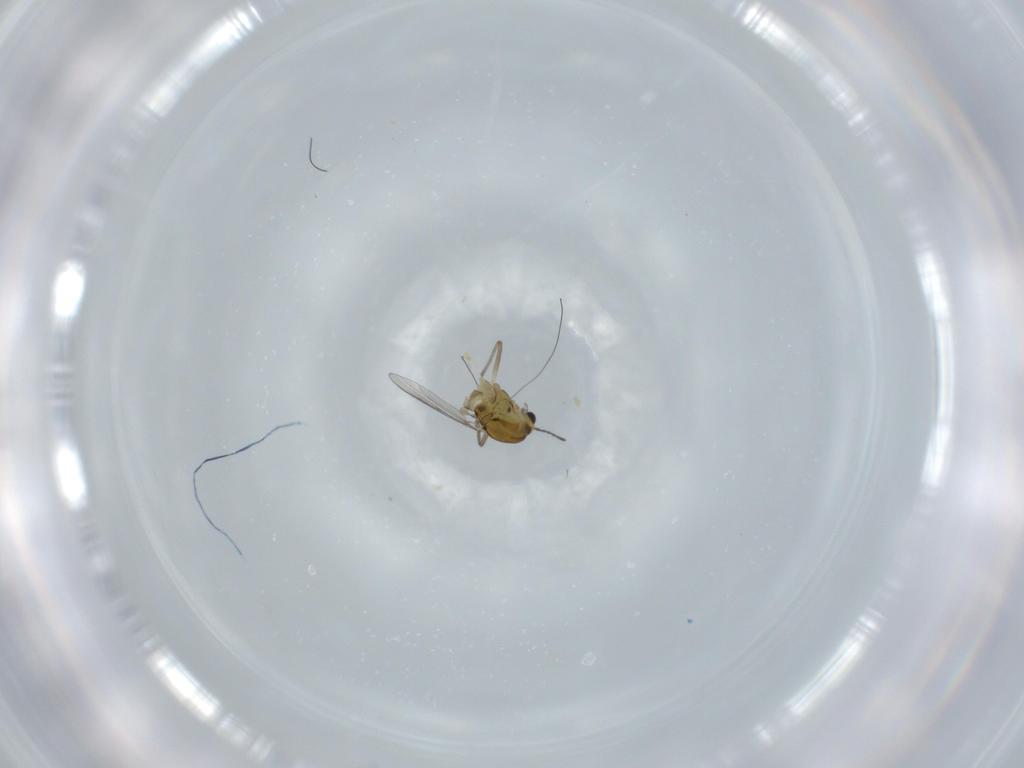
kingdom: Animalia
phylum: Arthropoda
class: Insecta
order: Diptera
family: Psychodidae
